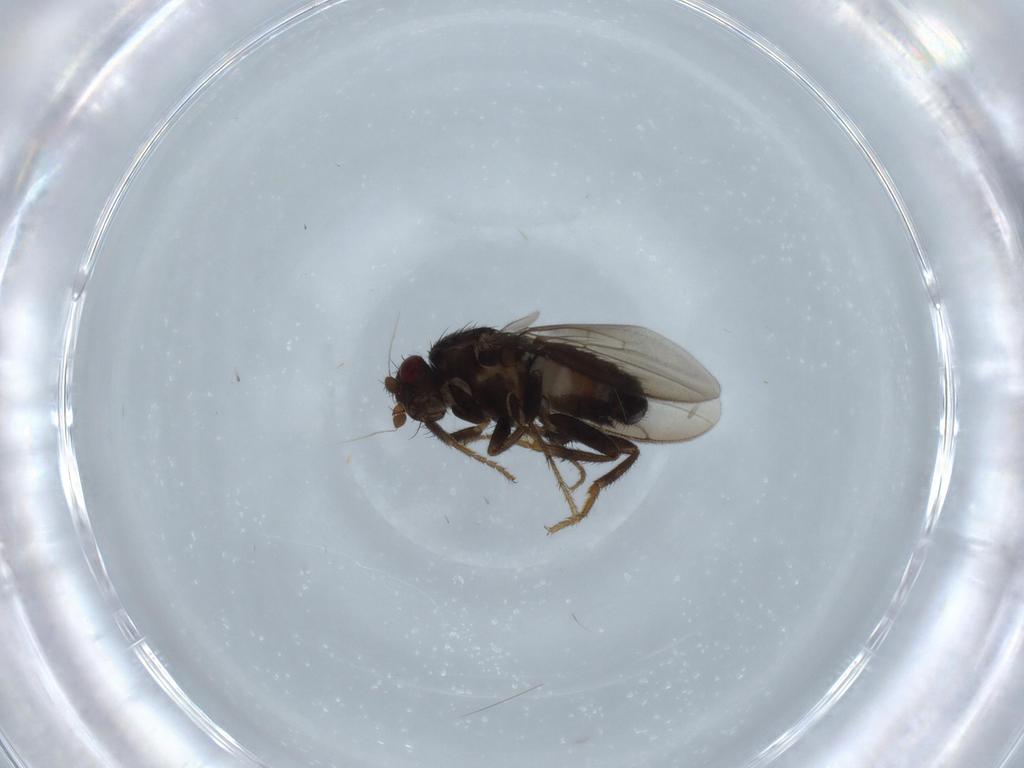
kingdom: Animalia
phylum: Arthropoda
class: Insecta
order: Diptera
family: Sphaeroceridae
